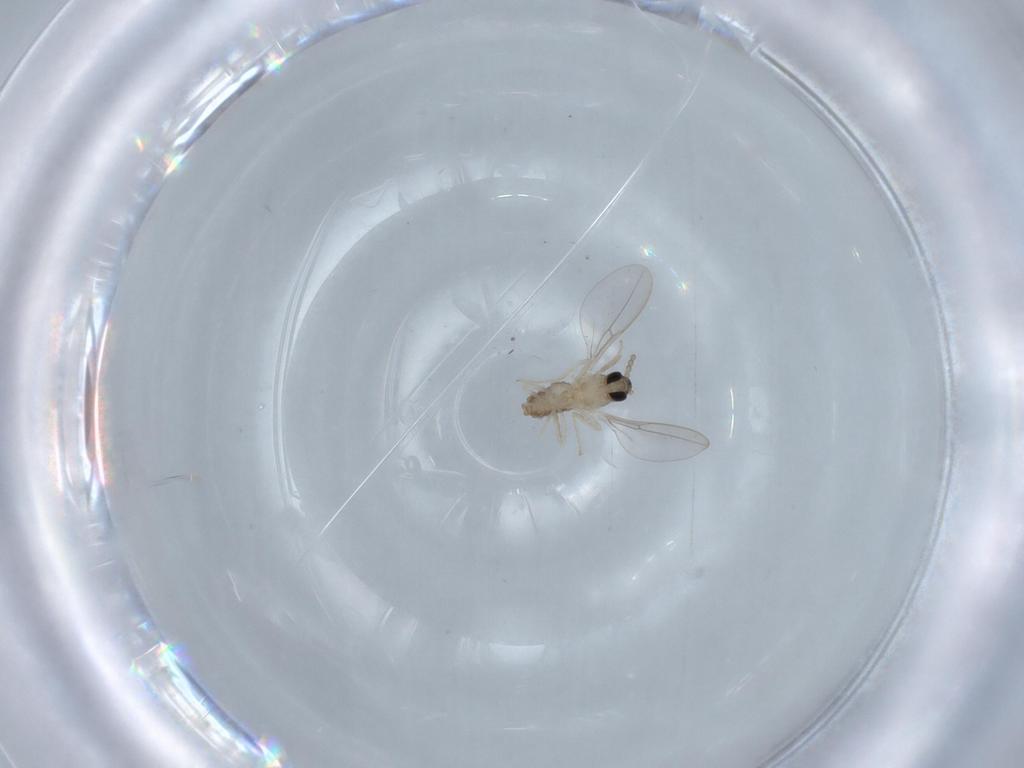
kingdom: Animalia
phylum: Arthropoda
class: Insecta
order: Diptera
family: Cecidomyiidae
